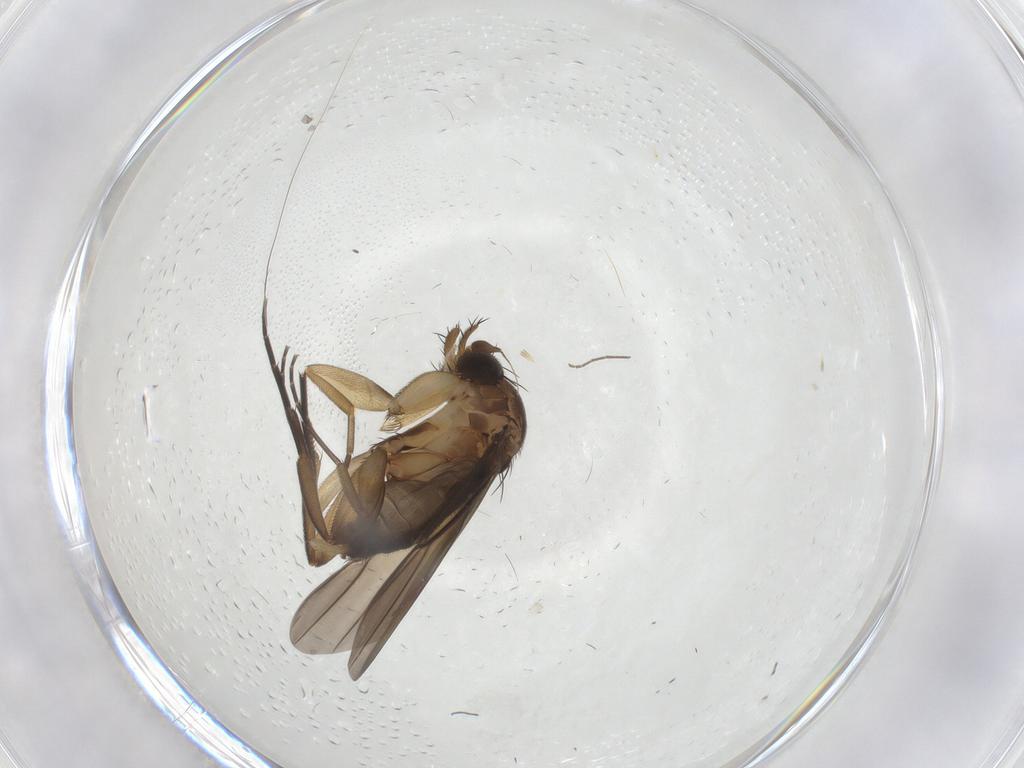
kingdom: Animalia
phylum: Arthropoda
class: Insecta
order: Diptera
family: Phoridae
